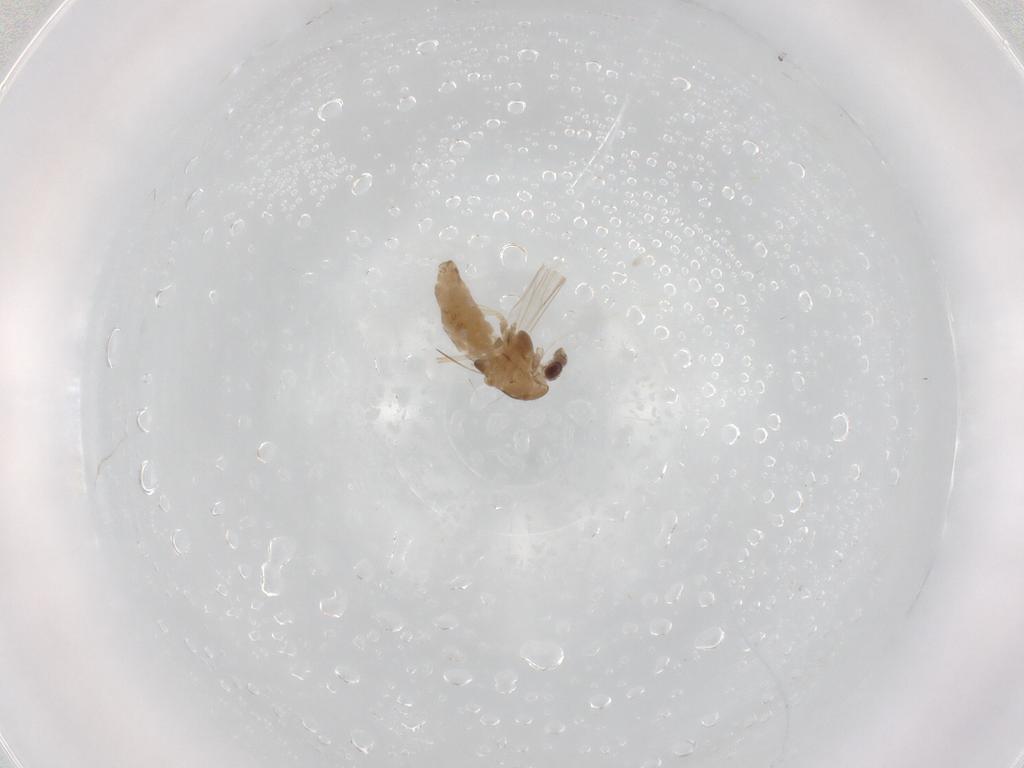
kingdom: Animalia
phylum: Arthropoda
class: Insecta
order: Diptera
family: Chironomidae
